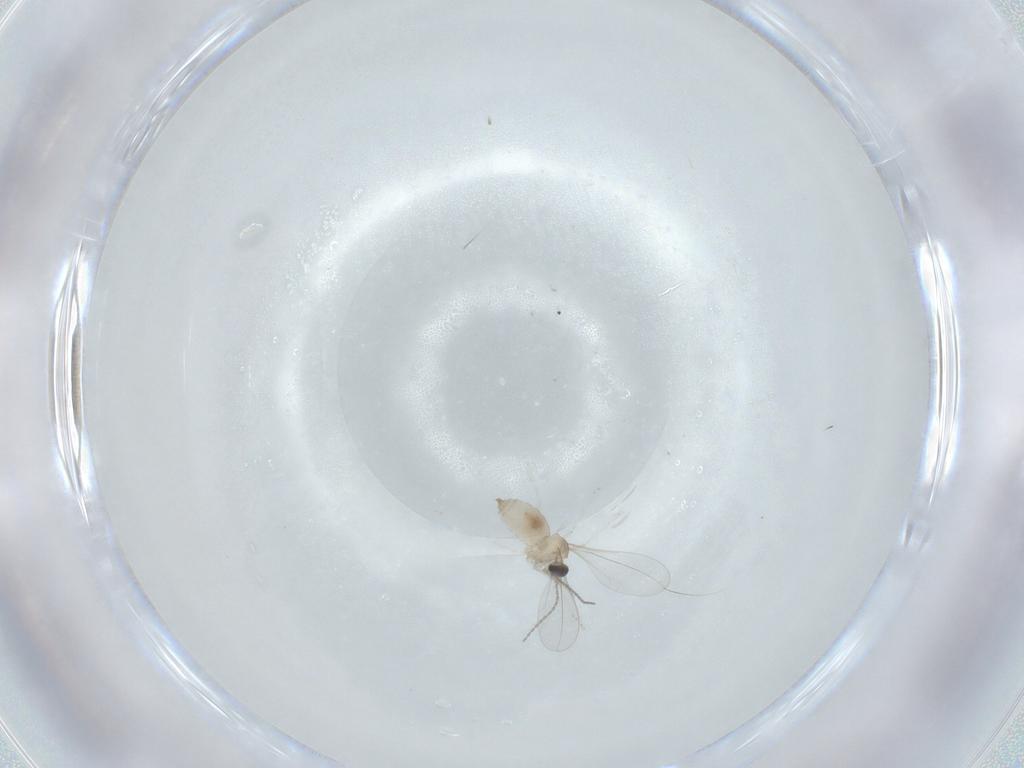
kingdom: Animalia
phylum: Arthropoda
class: Insecta
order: Diptera
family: Cecidomyiidae
